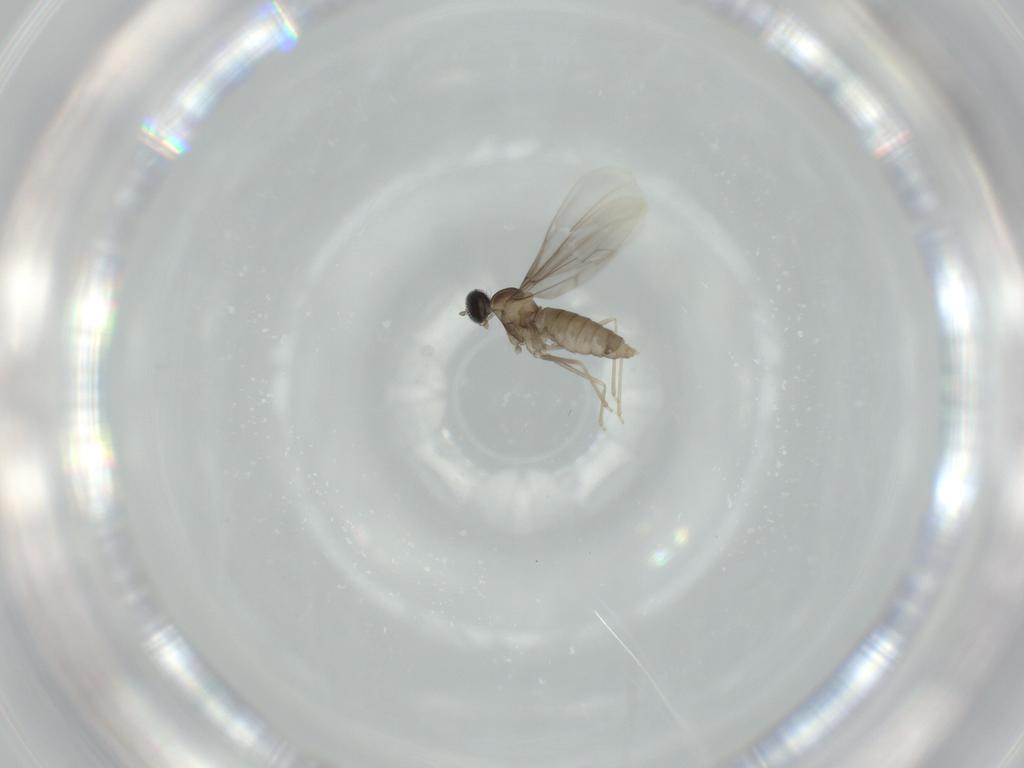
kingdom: Animalia
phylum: Arthropoda
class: Insecta
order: Diptera
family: Cecidomyiidae
